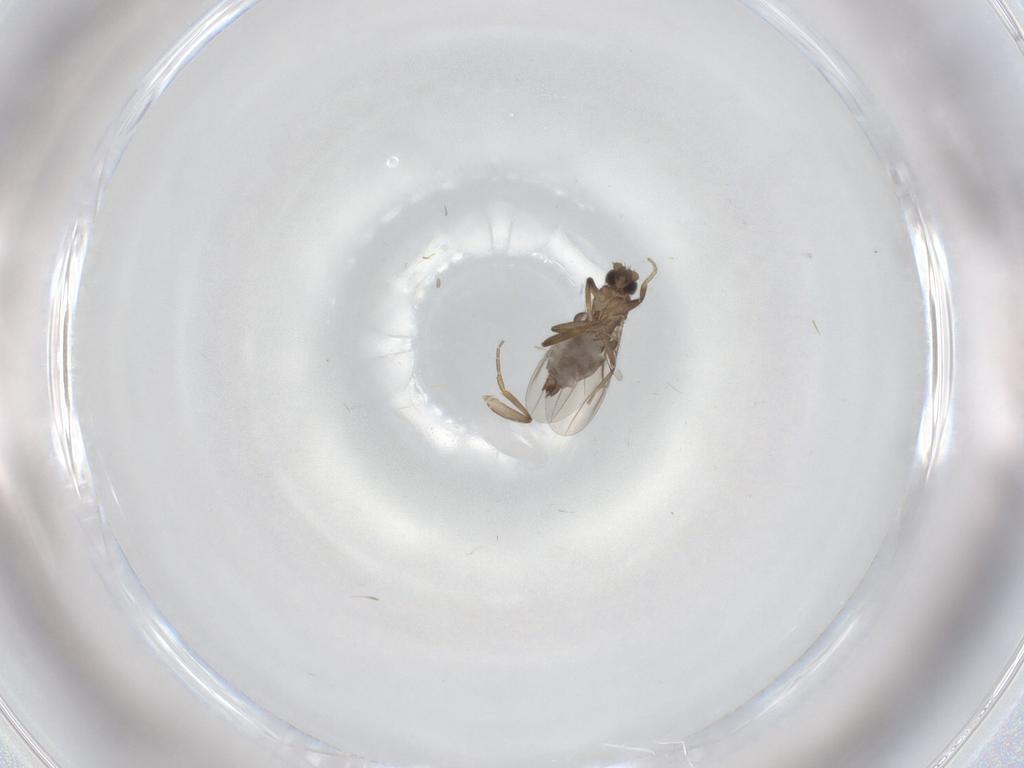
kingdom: Animalia
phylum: Arthropoda
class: Insecta
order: Diptera
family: Phoridae
